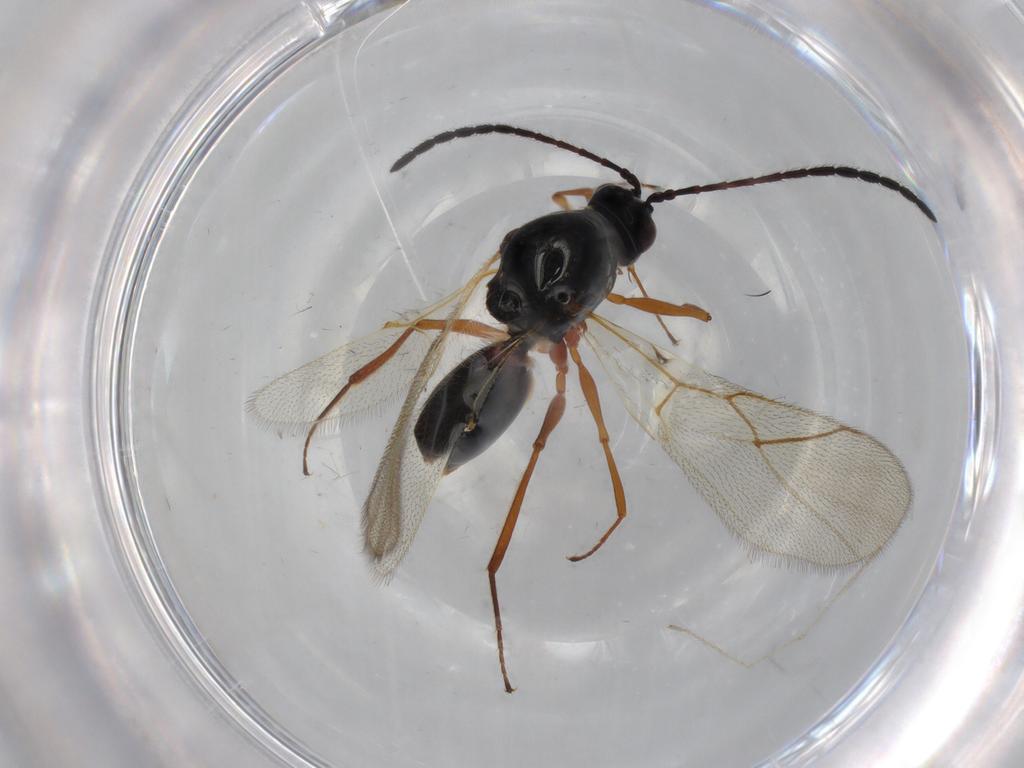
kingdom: Animalia
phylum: Arthropoda
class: Insecta
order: Hymenoptera
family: Figitidae
